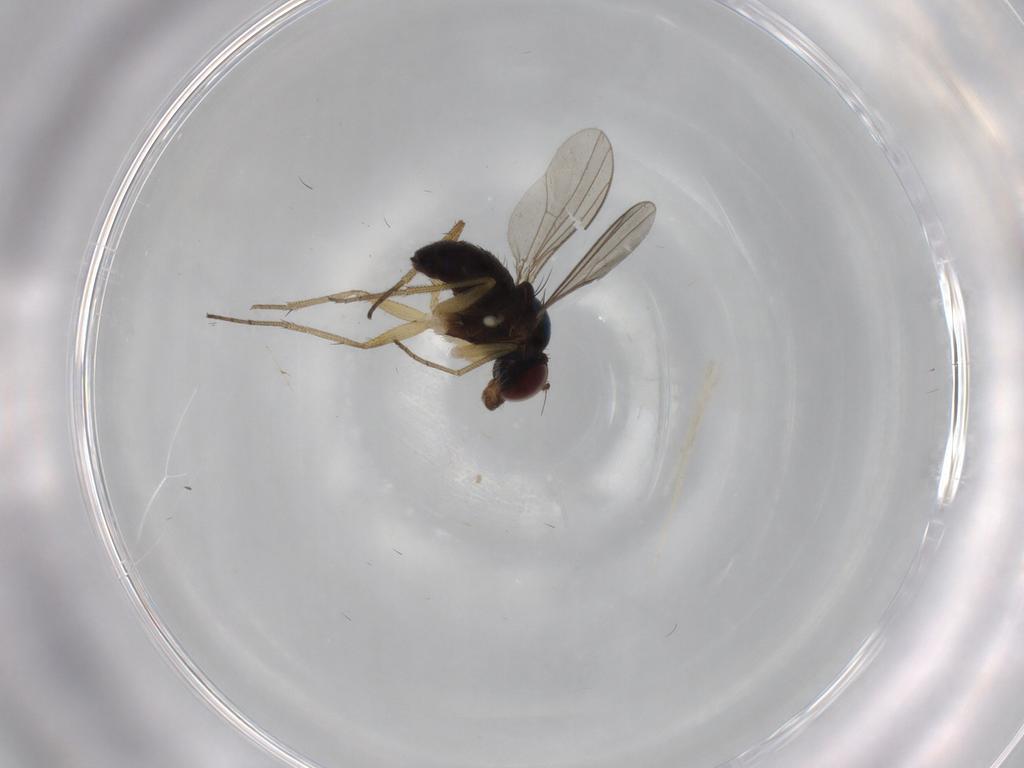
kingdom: Animalia
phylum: Arthropoda
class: Insecta
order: Diptera
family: Dolichopodidae
